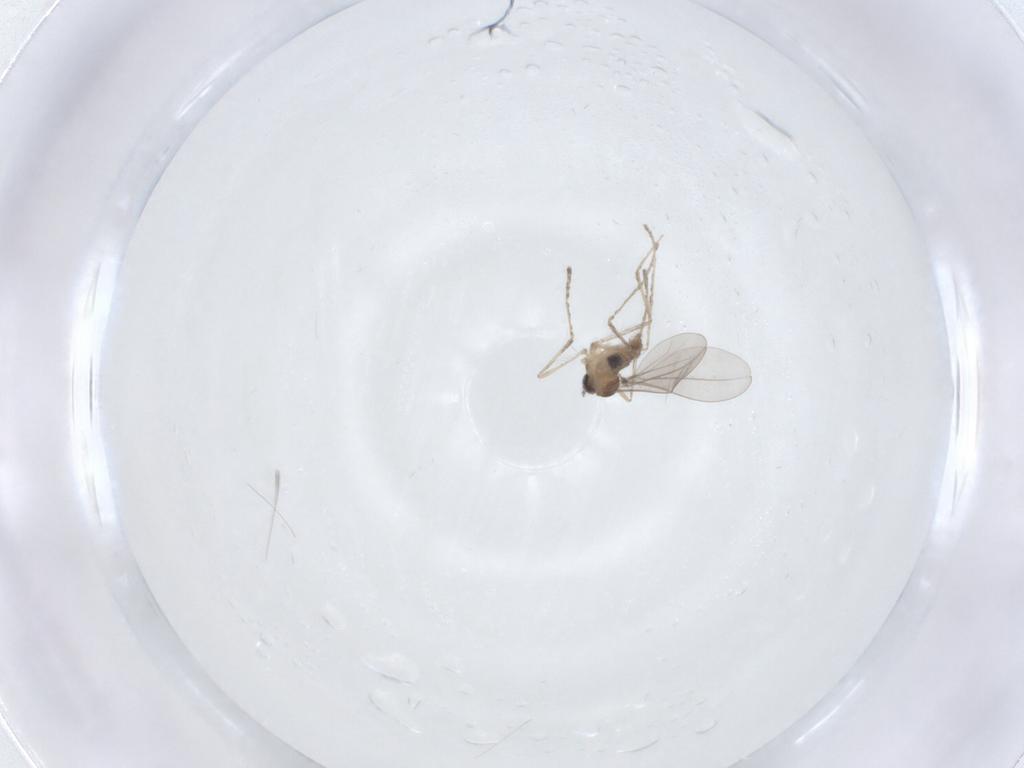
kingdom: Animalia
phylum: Arthropoda
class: Insecta
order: Diptera
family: Cecidomyiidae
